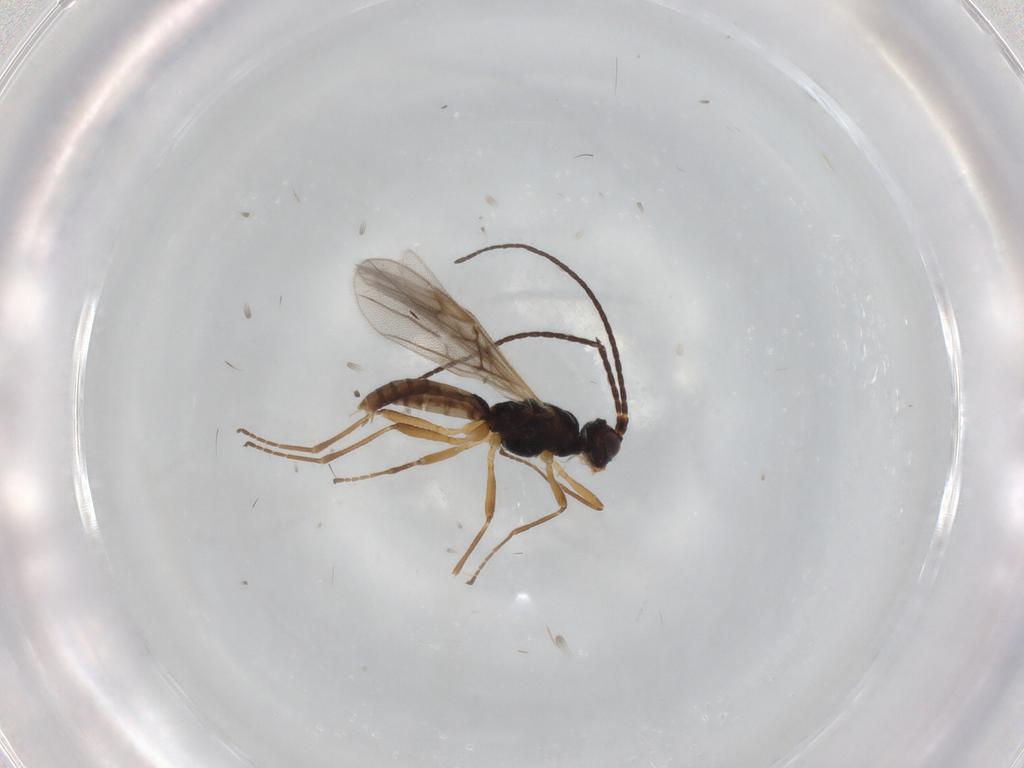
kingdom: Animalia
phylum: Arthropoda
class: Insecta
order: Hymenoptera
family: Braconidae
